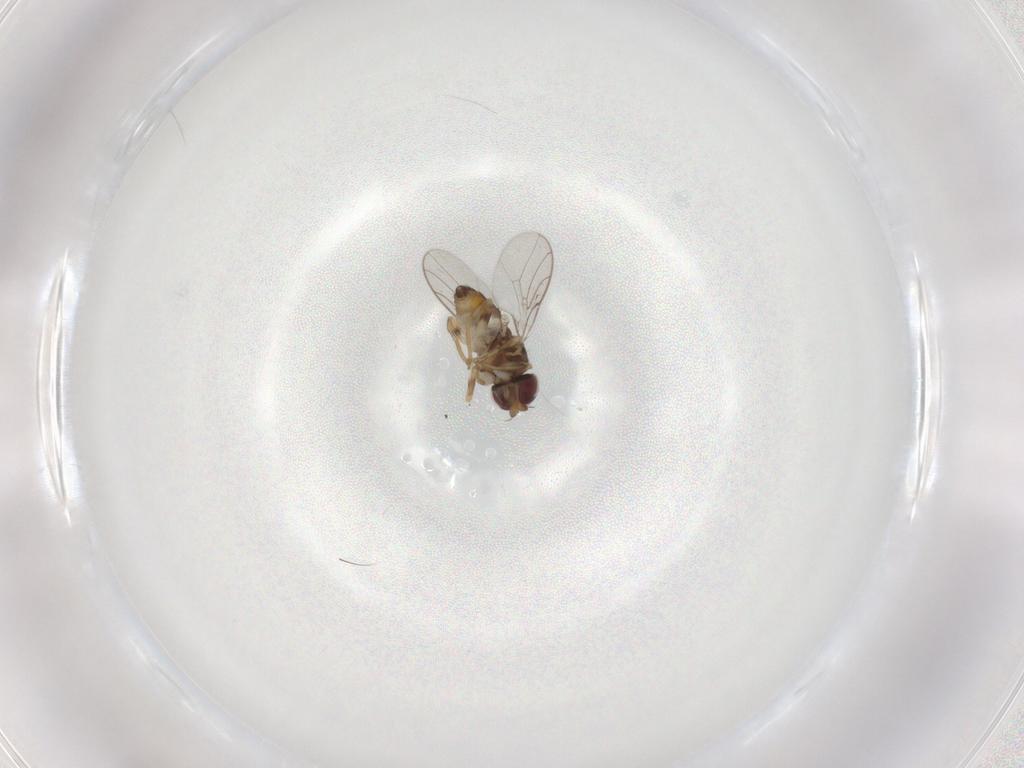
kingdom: Animalia
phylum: Arthropoda
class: Insecta
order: Diptera
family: Chloropidae
